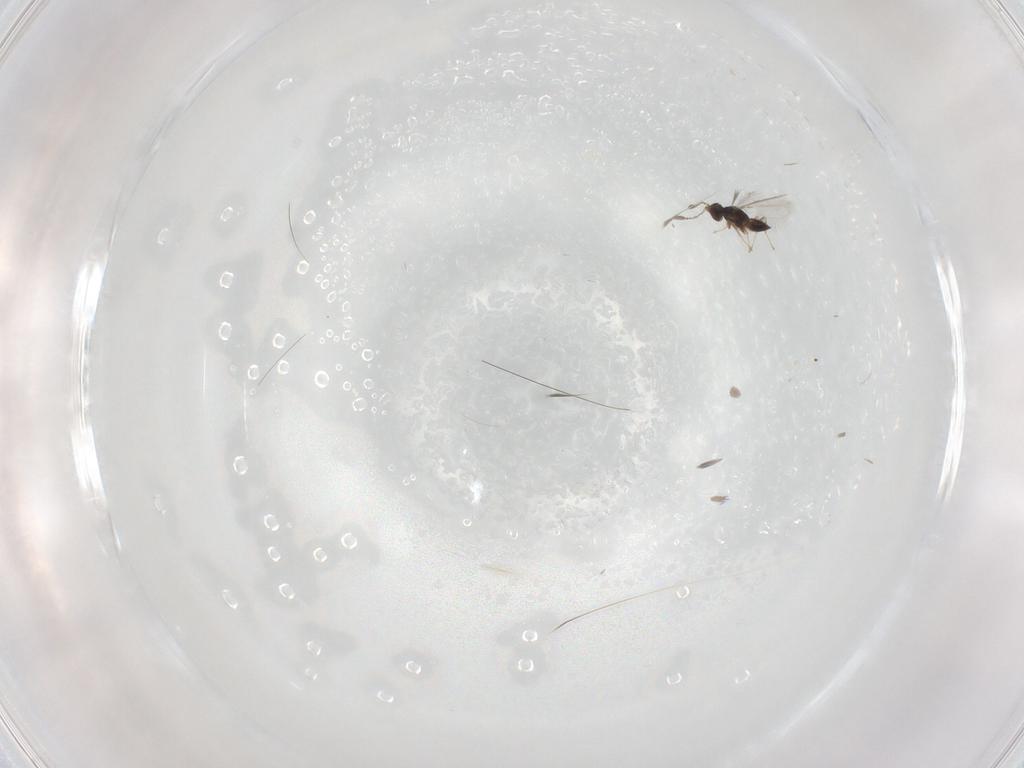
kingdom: Animalia
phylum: Arthropoda
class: Insecta
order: Hymenoptera
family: Mymaridae
